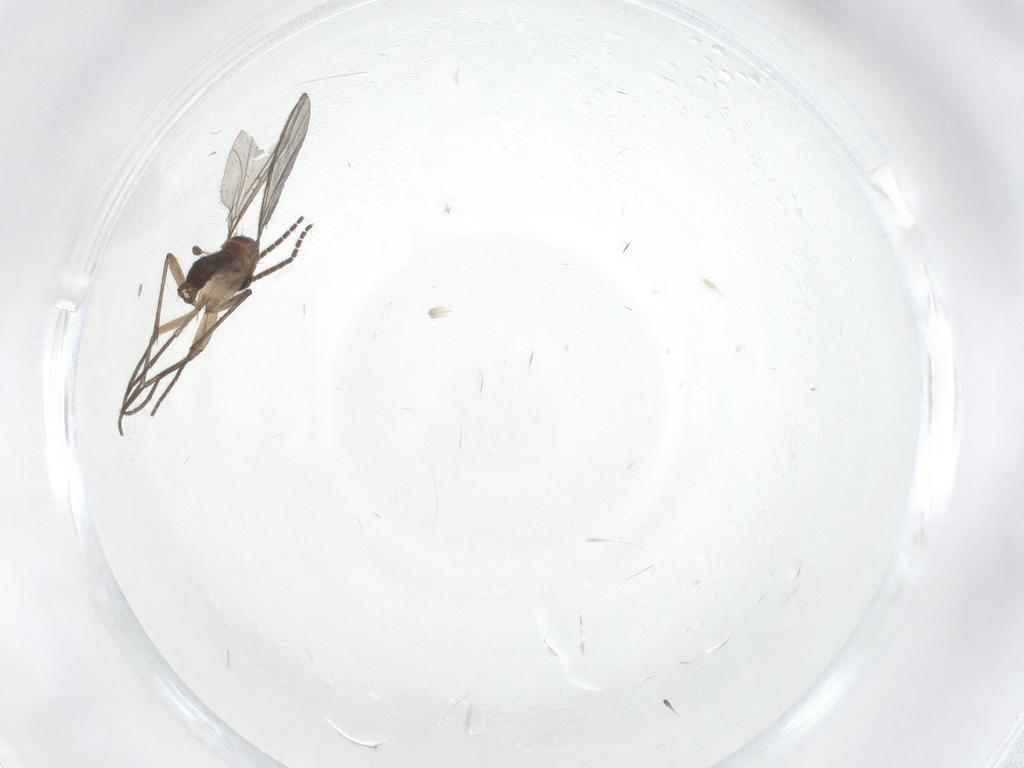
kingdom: Animalia
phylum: Arthropoda
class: Insecta
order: Diptera
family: Sciaridae
